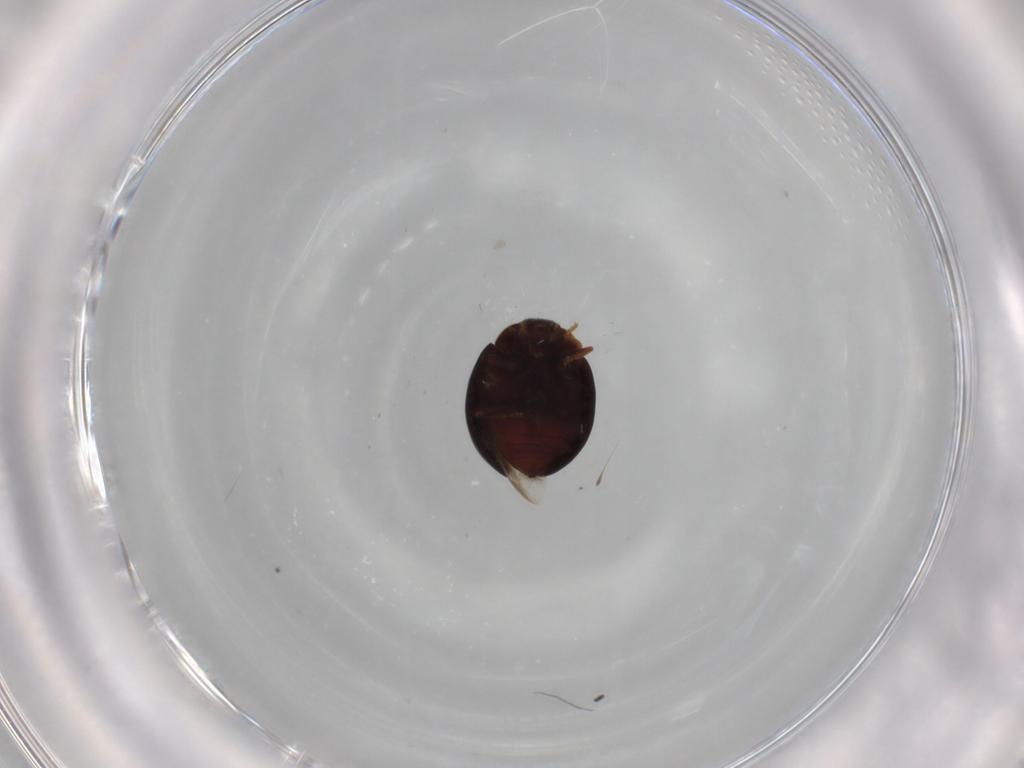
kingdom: Animalia
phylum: Arthropoda
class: Insecta
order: Coleoptera
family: Coccinellidae
